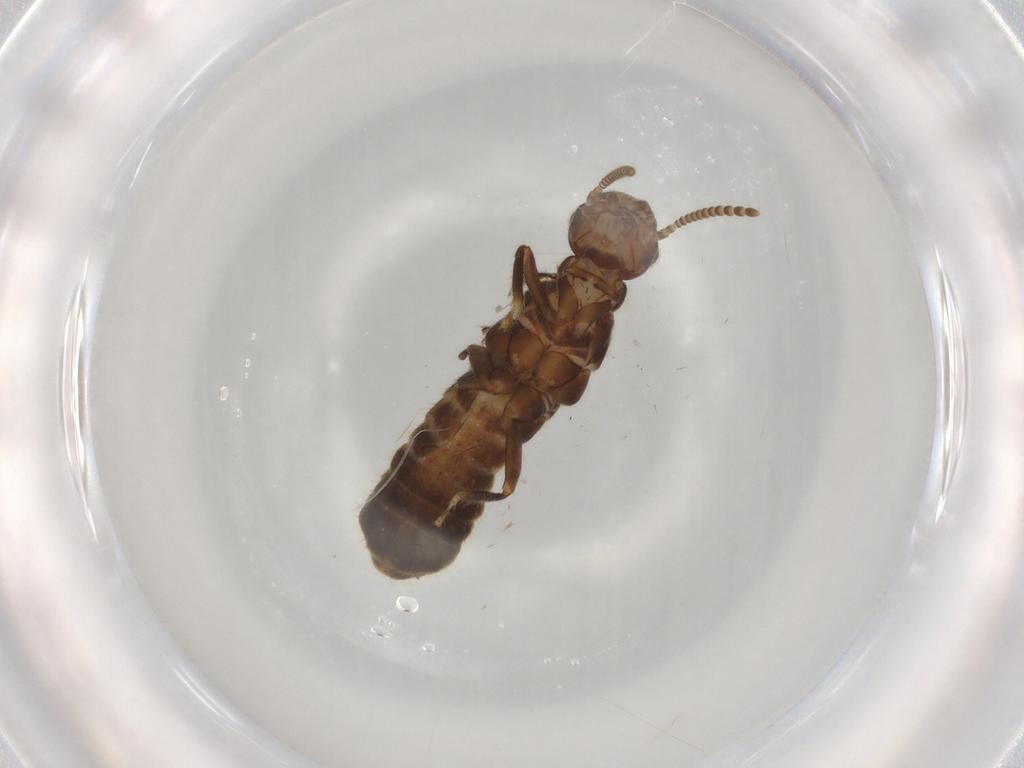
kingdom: Animalia
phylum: Arthropoda
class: Insecta
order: Blattodea
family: Termitidae
